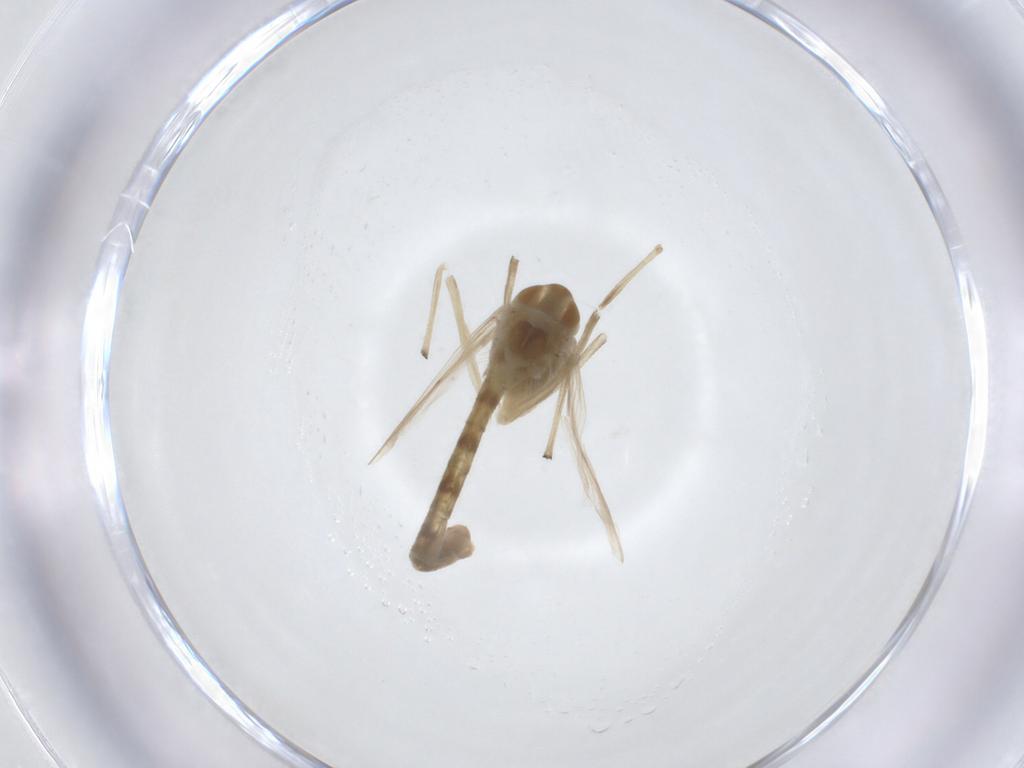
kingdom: Animalia
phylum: Arthropoda
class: Insecta
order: Diptera
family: Chironomidae
